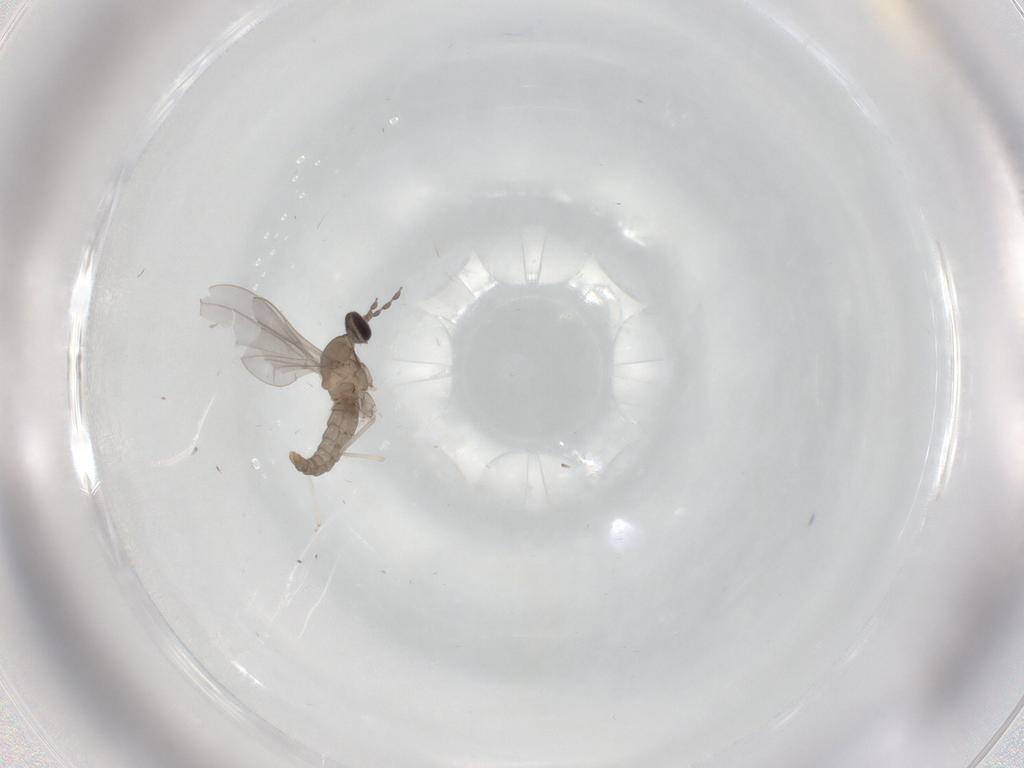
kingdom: Animalia
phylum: Arthropoda
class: Insecta
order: Diptera
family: Cecidomyiidae
